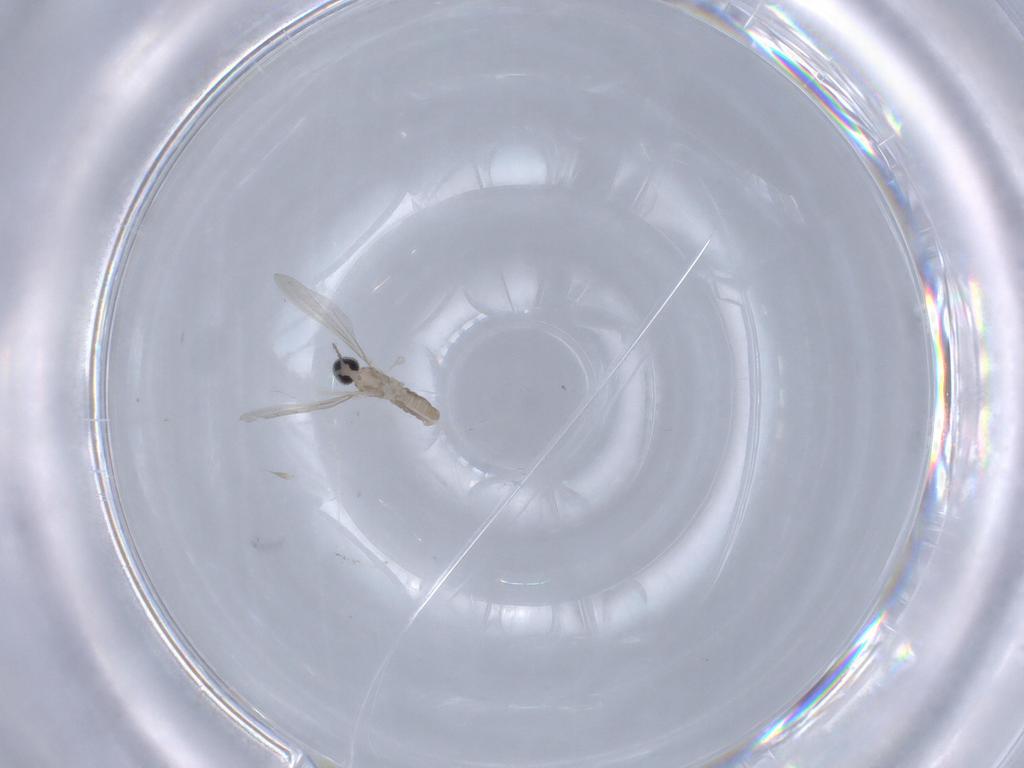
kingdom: Animalia
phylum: Arthropoda
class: Insecta
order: Diptera
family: Cecidomyiidae
